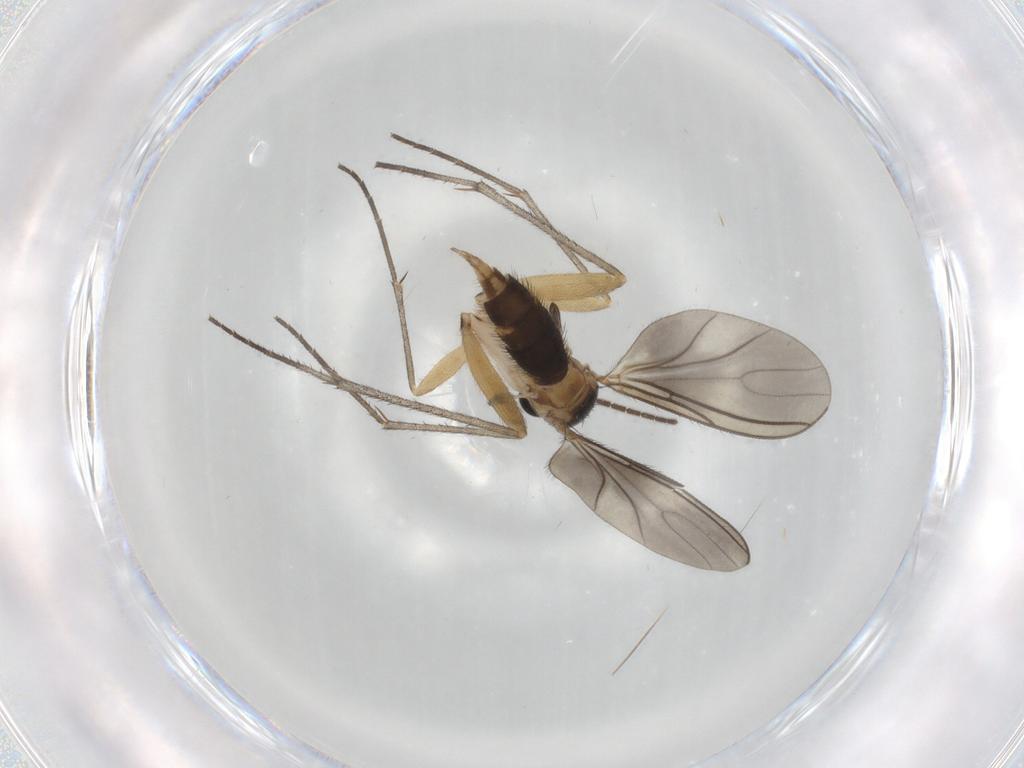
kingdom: Animalia
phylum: Arthropoda
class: Insecta
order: Diptera
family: Sciaridae
